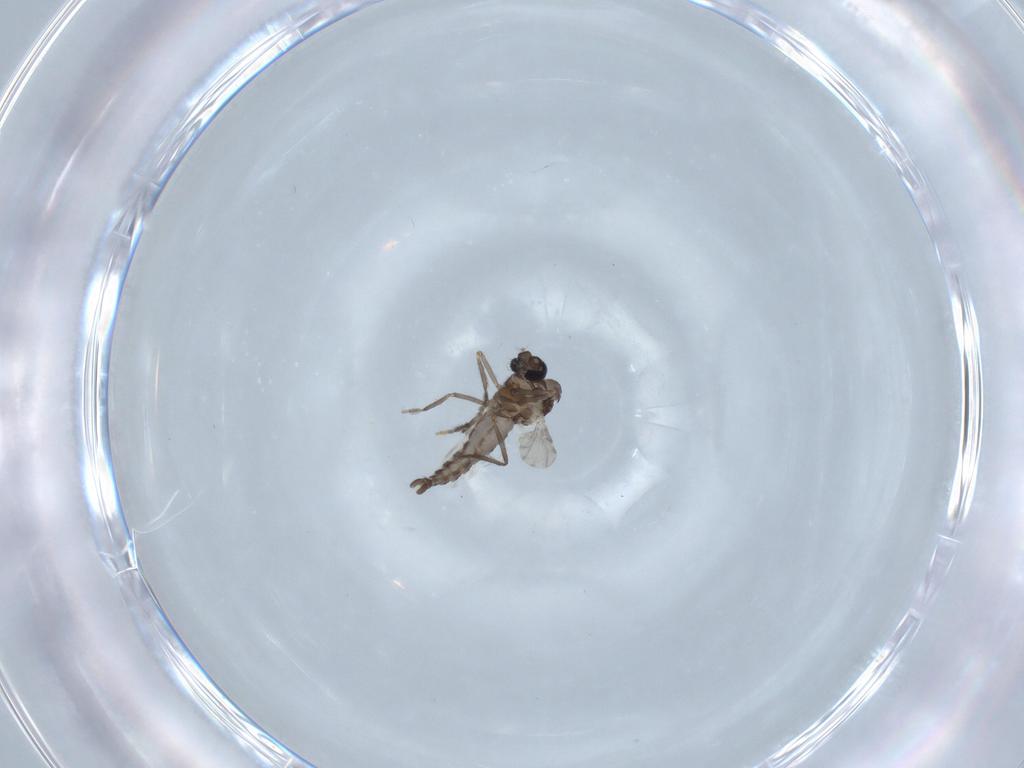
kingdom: Animalia
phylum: Arthropoda
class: Insecta
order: Diptera
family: Ceratopogonidae
